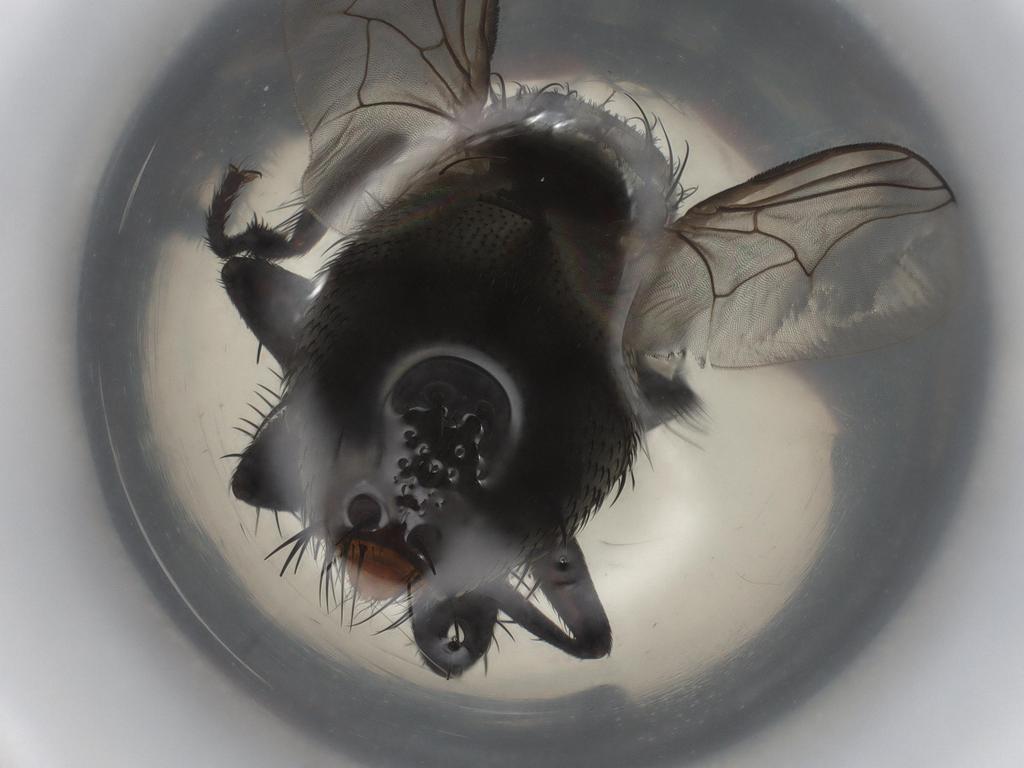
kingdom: Animalia
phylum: Arthropoda
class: Insecta
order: Diptera
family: Sarcophagidae
